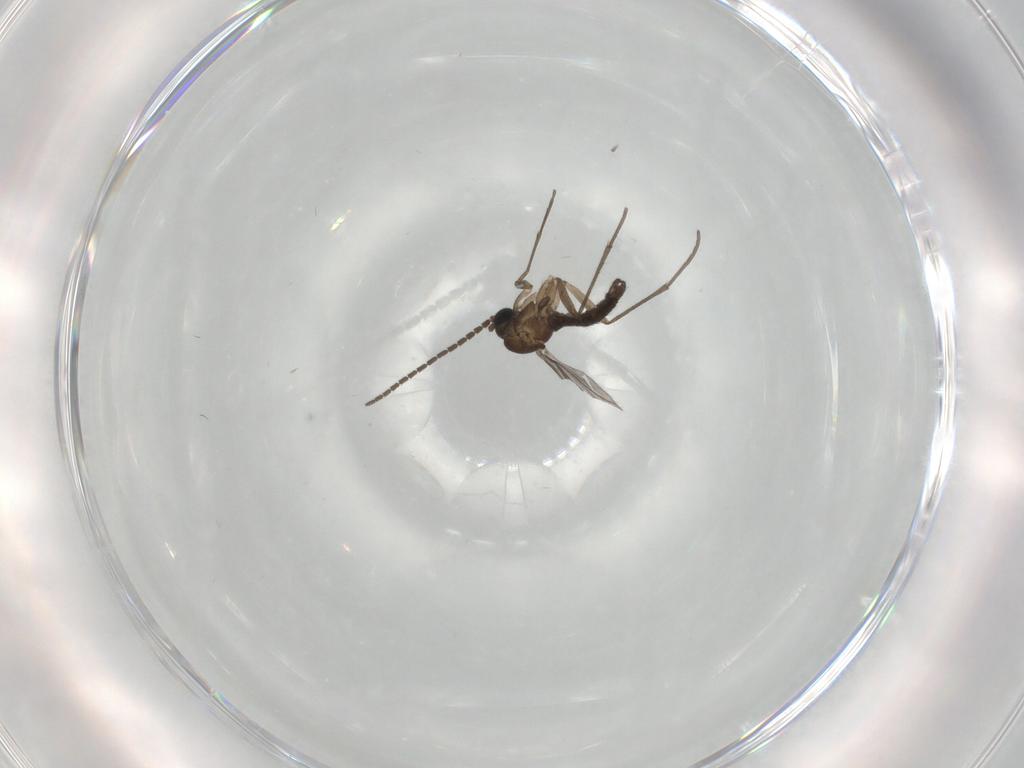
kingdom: Animalia
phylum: Arthropoda
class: Insecta
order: Diptera
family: Sciaridae
